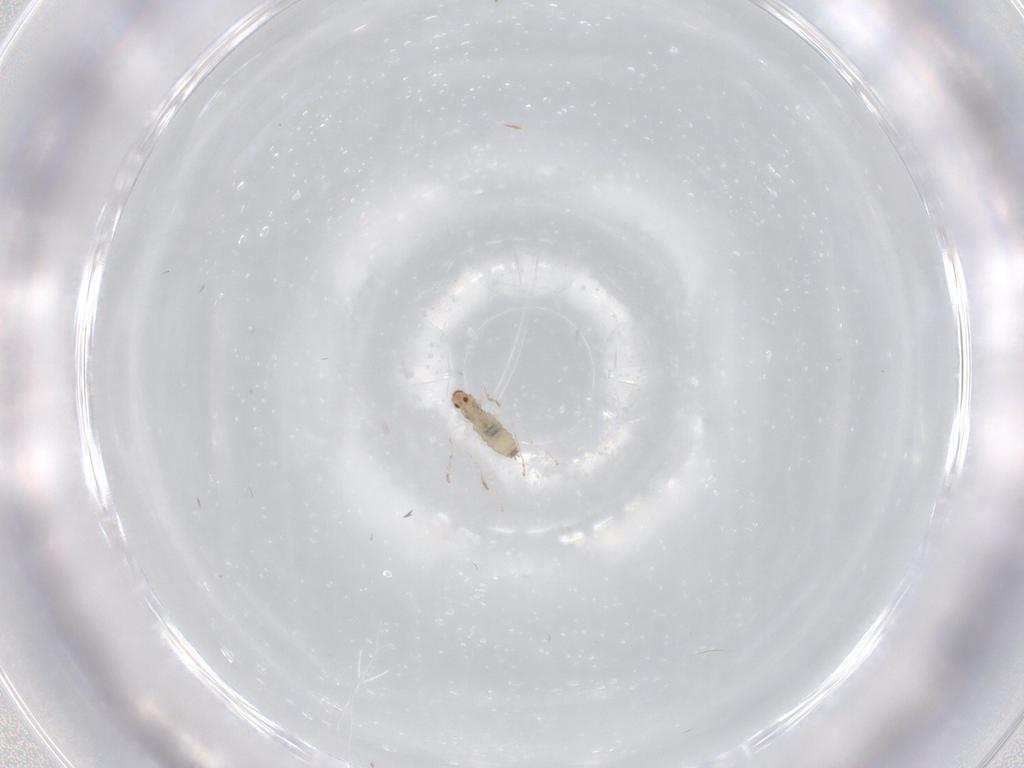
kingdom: Animalia
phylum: Arthropoda
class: Insecta
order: Diptera
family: Cecidomyiidae
